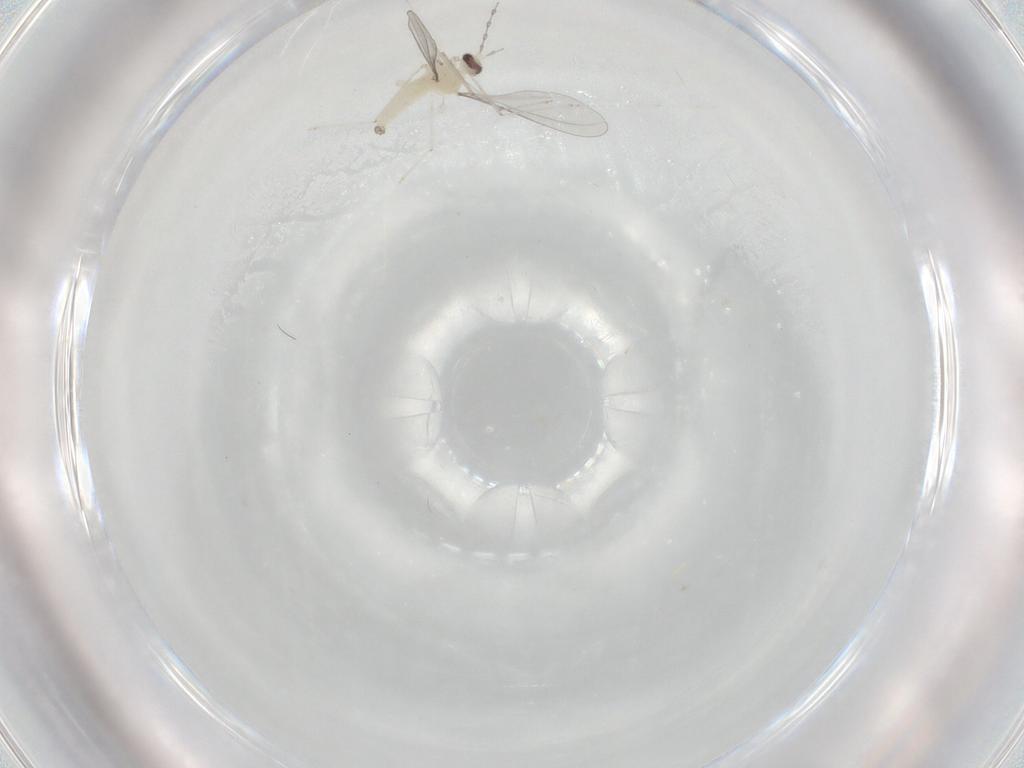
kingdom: Animalia
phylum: Arthropoda
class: Insecta
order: Diptera
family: Cecidomyiidae
